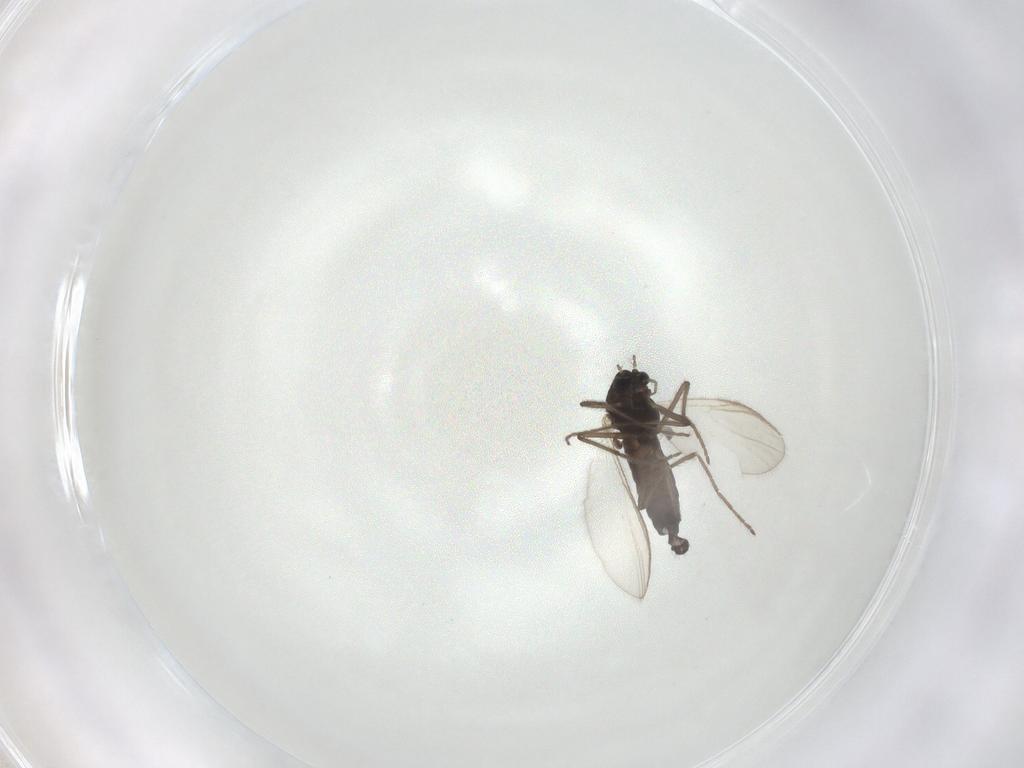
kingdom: Animalia
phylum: Arthropoda
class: Insecta
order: Diptera
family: Chironomidae
